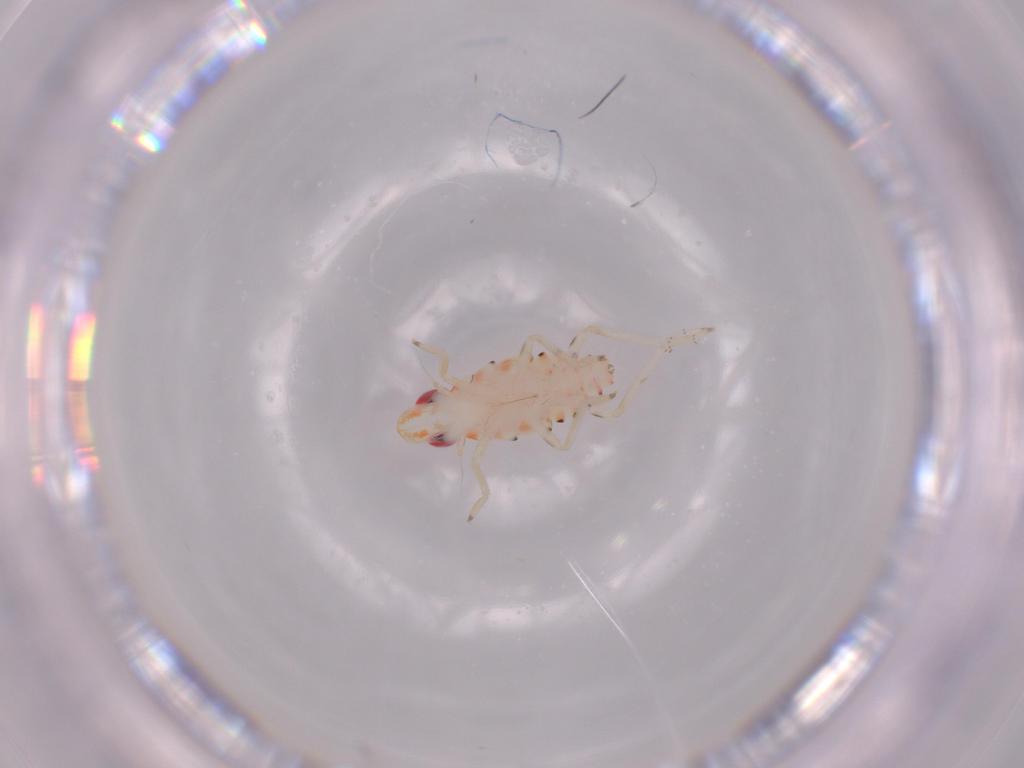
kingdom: Animalia
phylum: Arthropoda
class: Insecta
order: Hemiptera
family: Tropiduchidae
